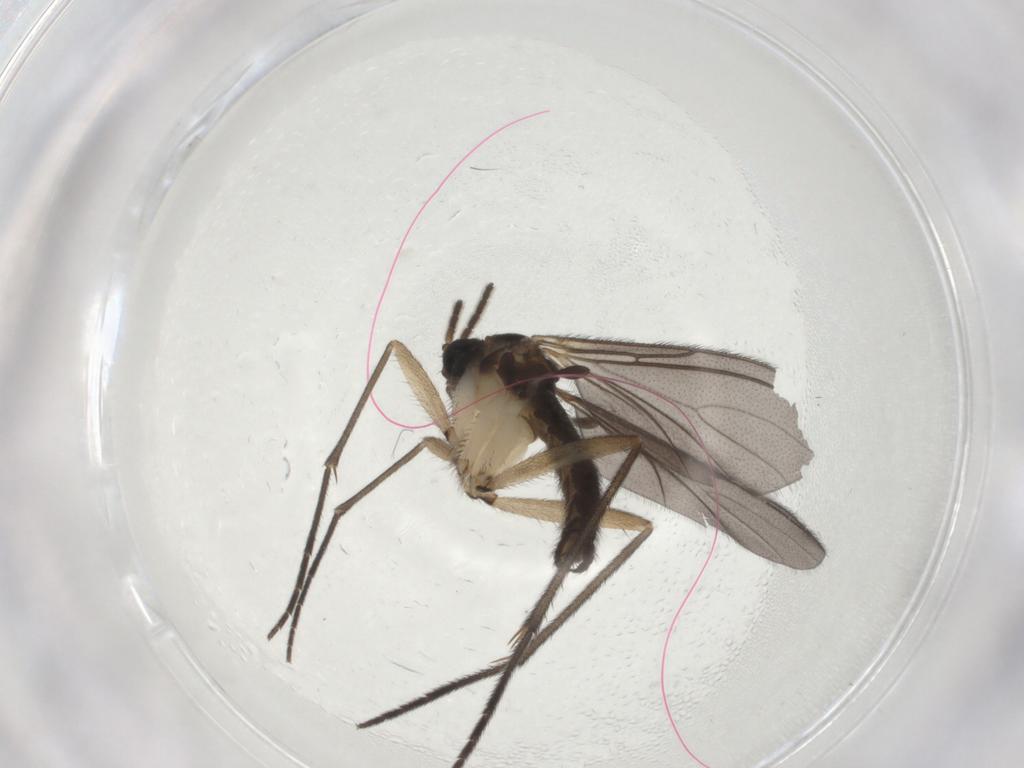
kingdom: Animalia
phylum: Arthropoda
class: Insecta
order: Diptera
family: Sciaridae
